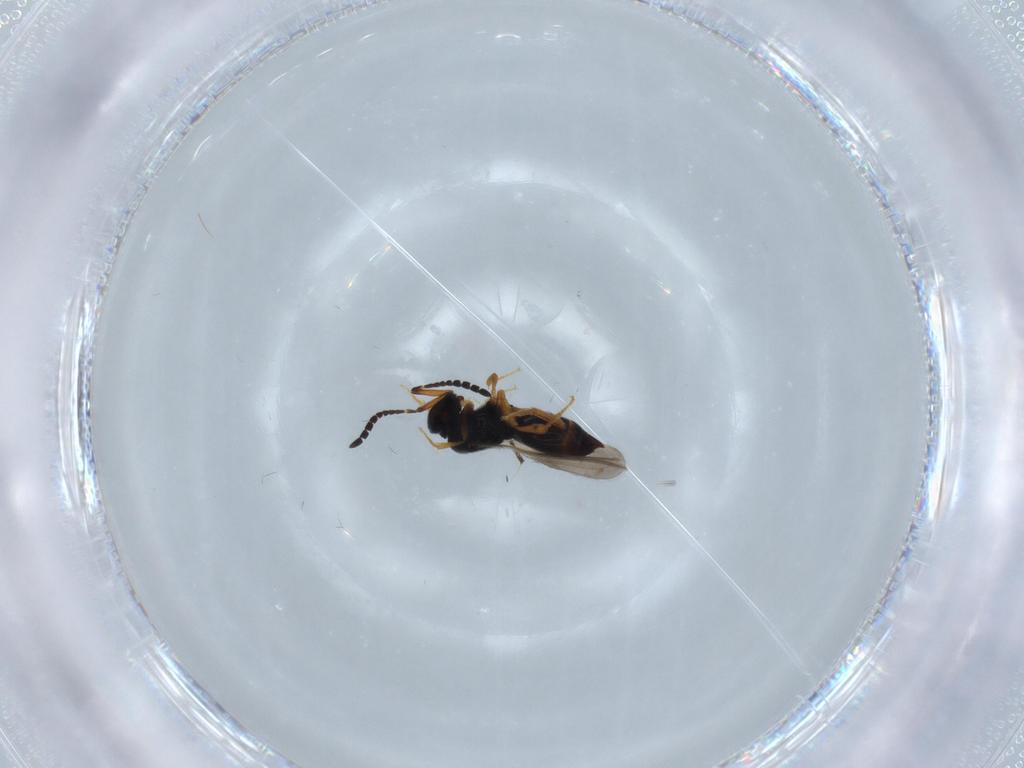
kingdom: Animalia
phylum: Arthropoda
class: Insecta
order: Hymenoptera
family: Ceraphronidae
